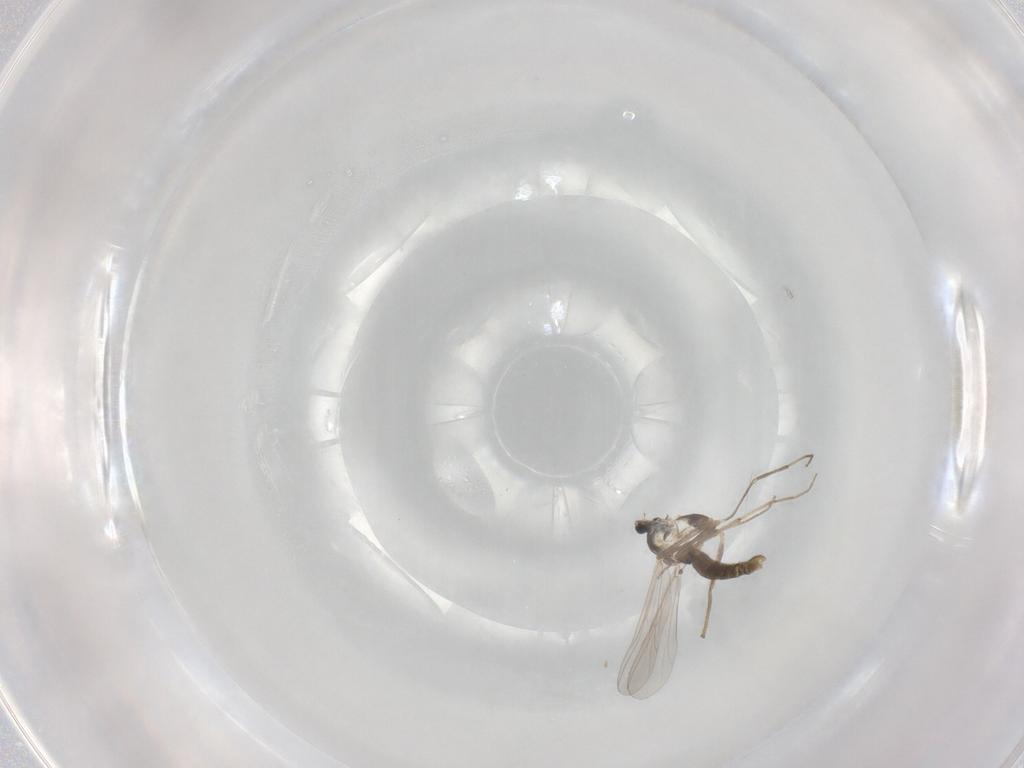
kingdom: Animalia
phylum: Arthropoda
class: Insecta
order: Diptera
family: Chironomidae
